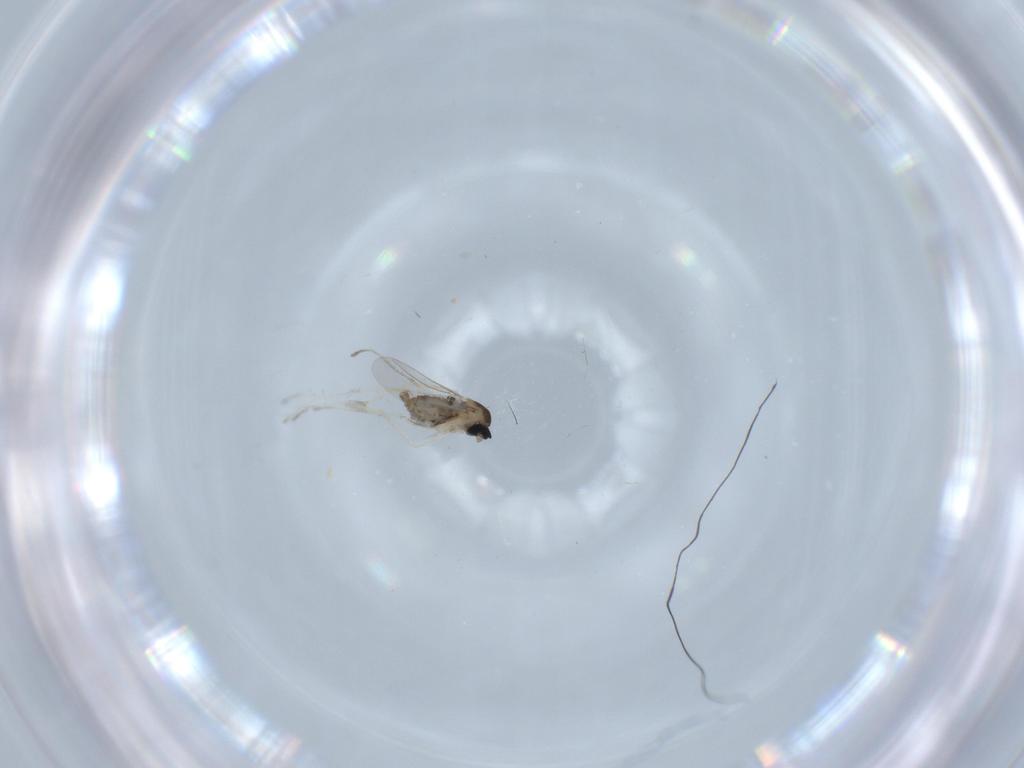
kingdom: Animalia
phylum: Arthropoda
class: Insecta
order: Diptera
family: Cecidomyiidae
